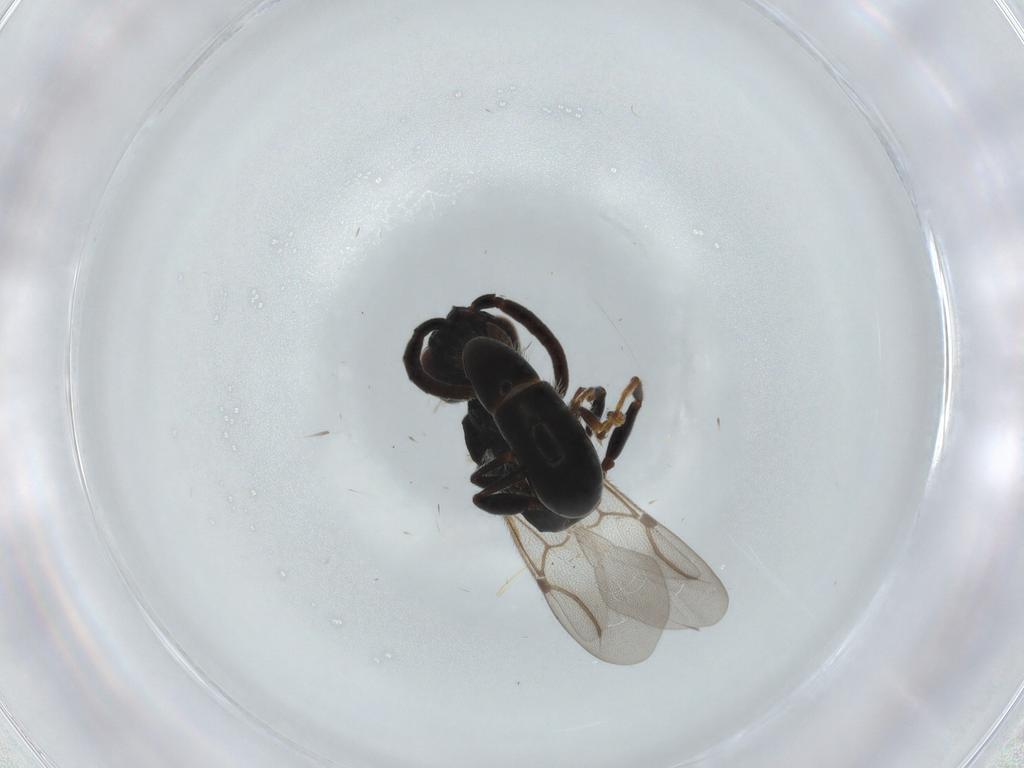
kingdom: Animalia
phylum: Arthropoda
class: Insecta
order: Hymenoptera
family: Bethylidae
